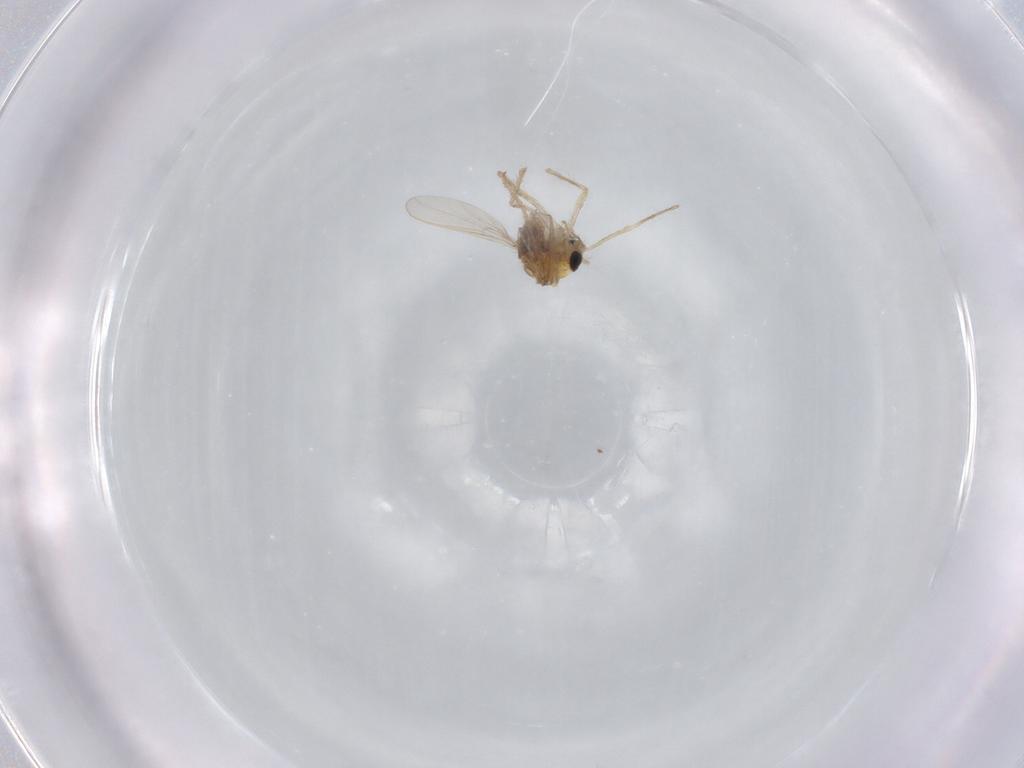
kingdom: Animalia
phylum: Arthropoda
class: Insecta
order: Diptera
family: Chironomidae
